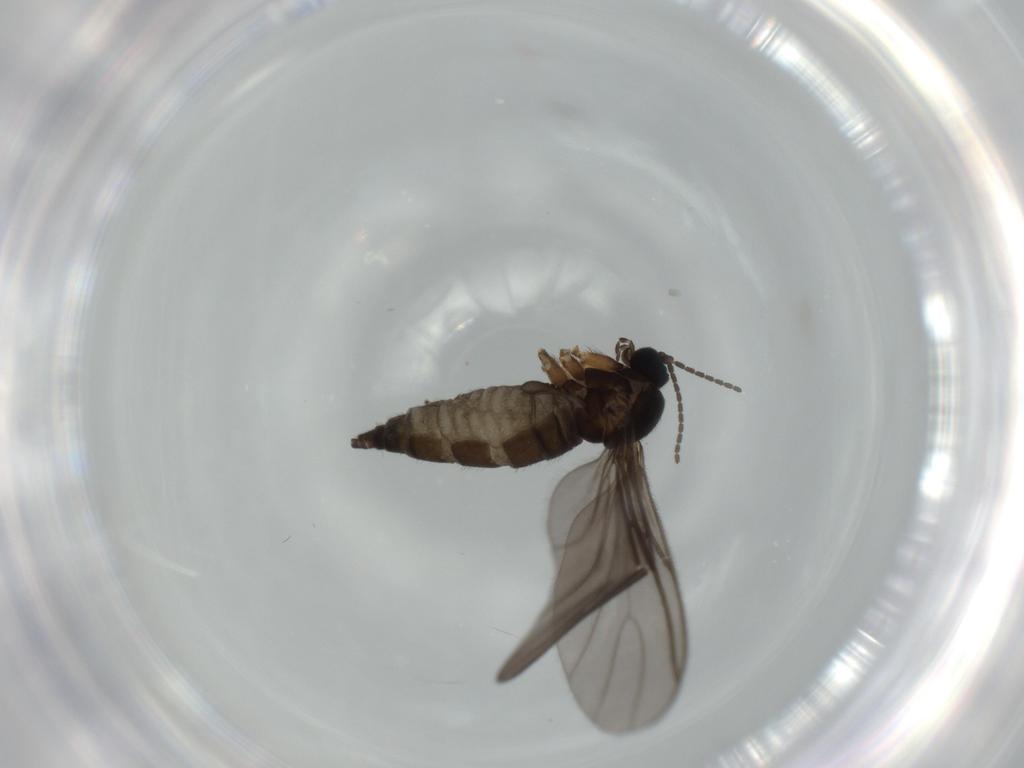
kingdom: Animalia
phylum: Arthropoda
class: Insecta
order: Diptera
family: Sciaridae
